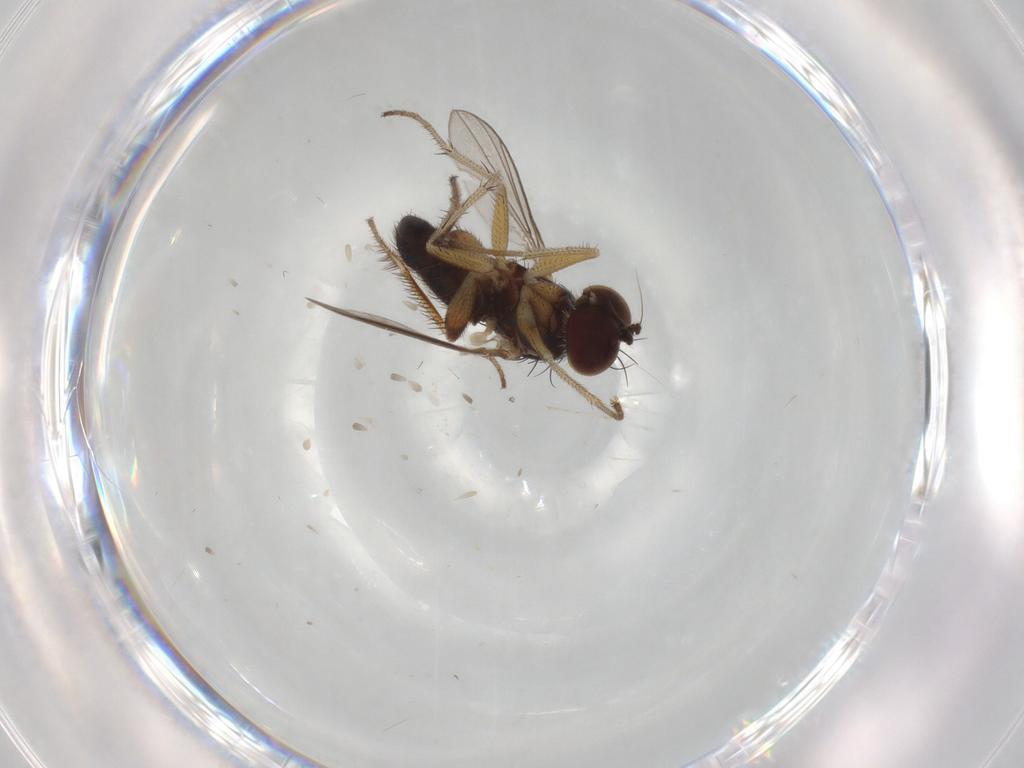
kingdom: Animalia
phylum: Arthropoda
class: Insecta
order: Diptera
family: Dolichopodidae
